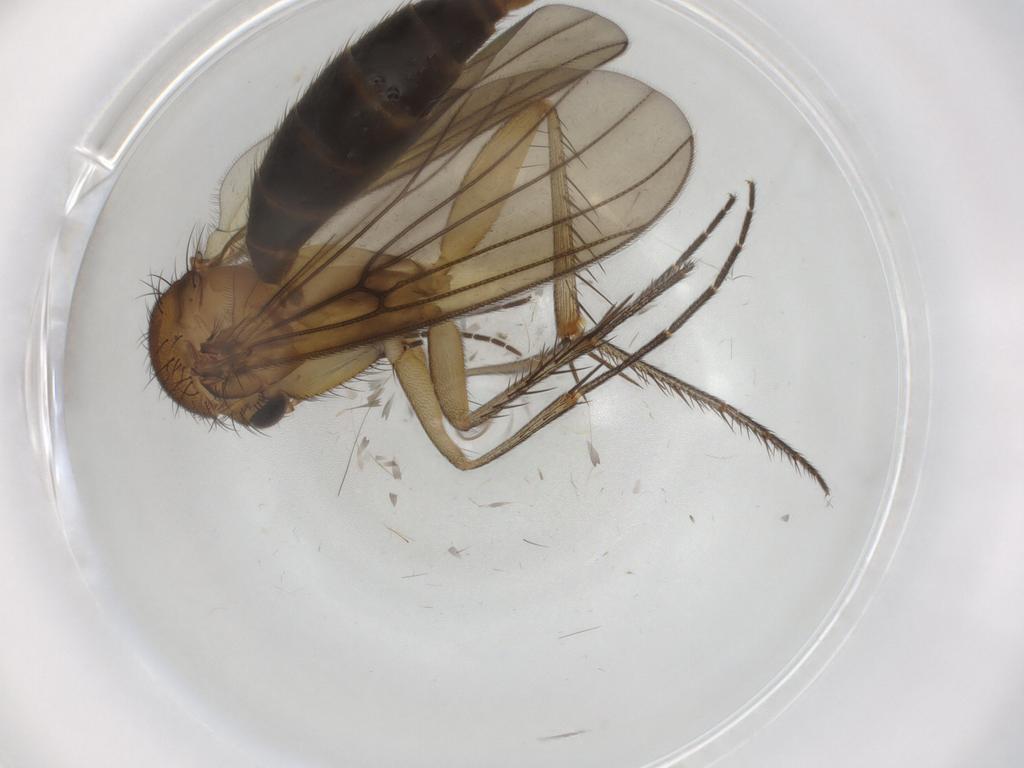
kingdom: Animalia
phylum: Arthropoda
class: Insecta
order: Diptera
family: Mycetophilidae
